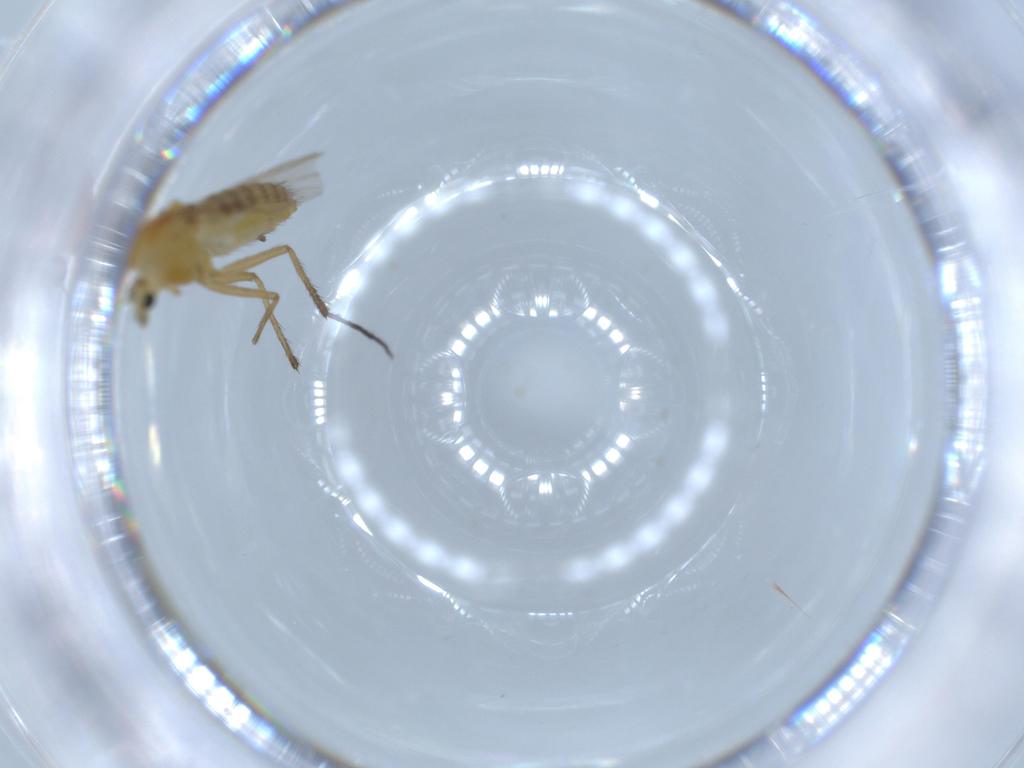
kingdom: Animalia
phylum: Arthropoda
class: Insecta
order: Diptera
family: Chironomidae
